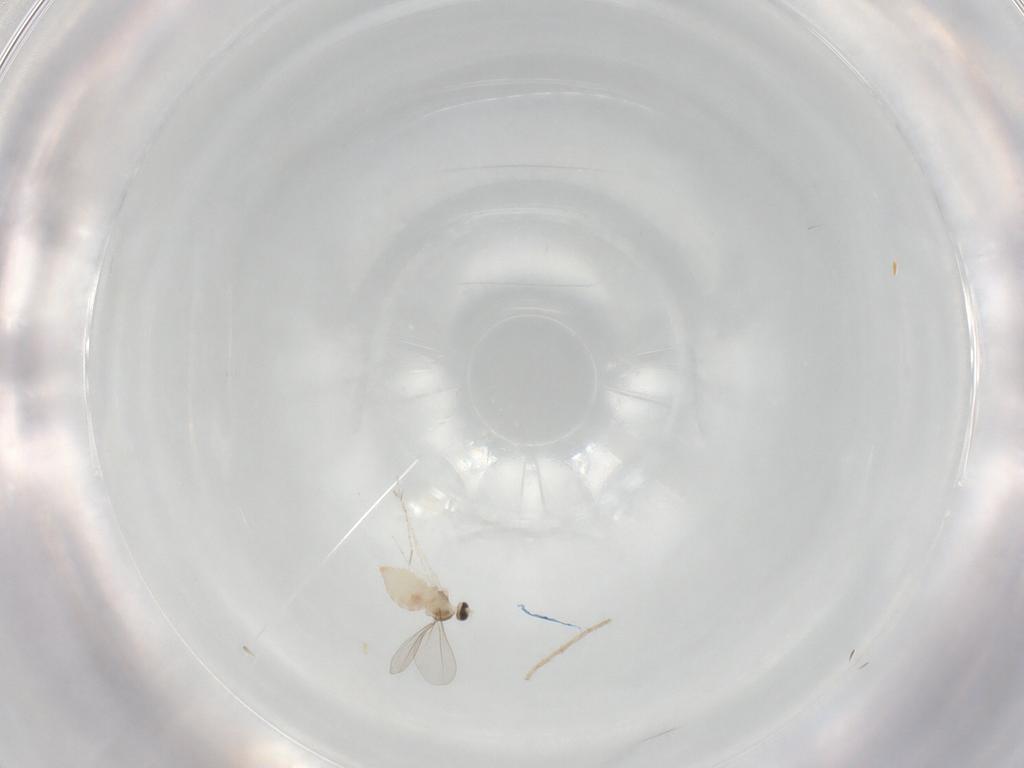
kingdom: Animalia
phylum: Arthropoda
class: Insecta
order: Diptera
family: Cecidomyiidae
